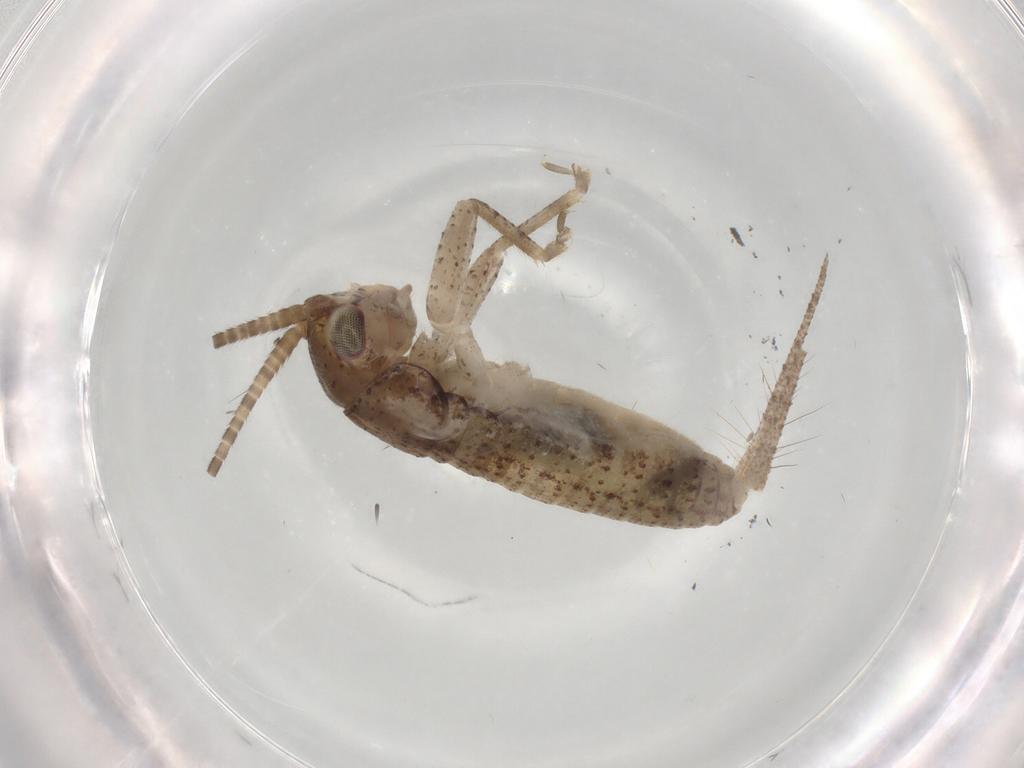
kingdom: Animalia
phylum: Arthropoda
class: Insecta
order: Orthoptera
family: Gryllidae
